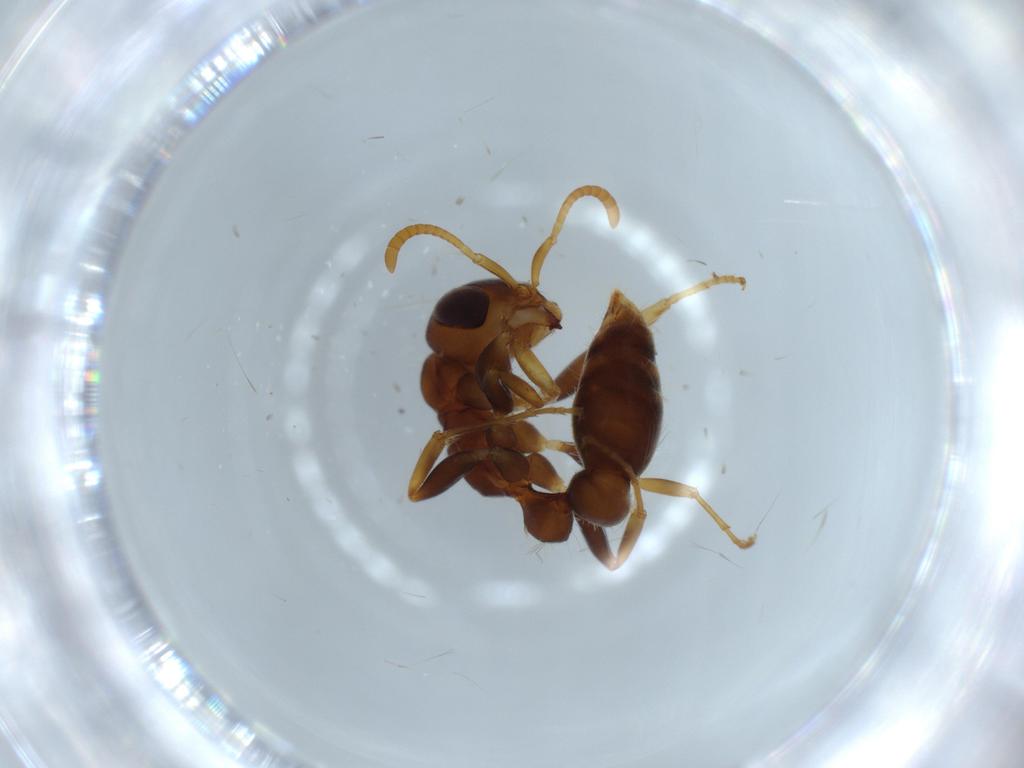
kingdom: Animalia
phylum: Arthropoda
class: Insecta
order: Hymenoptera
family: Formicidae
